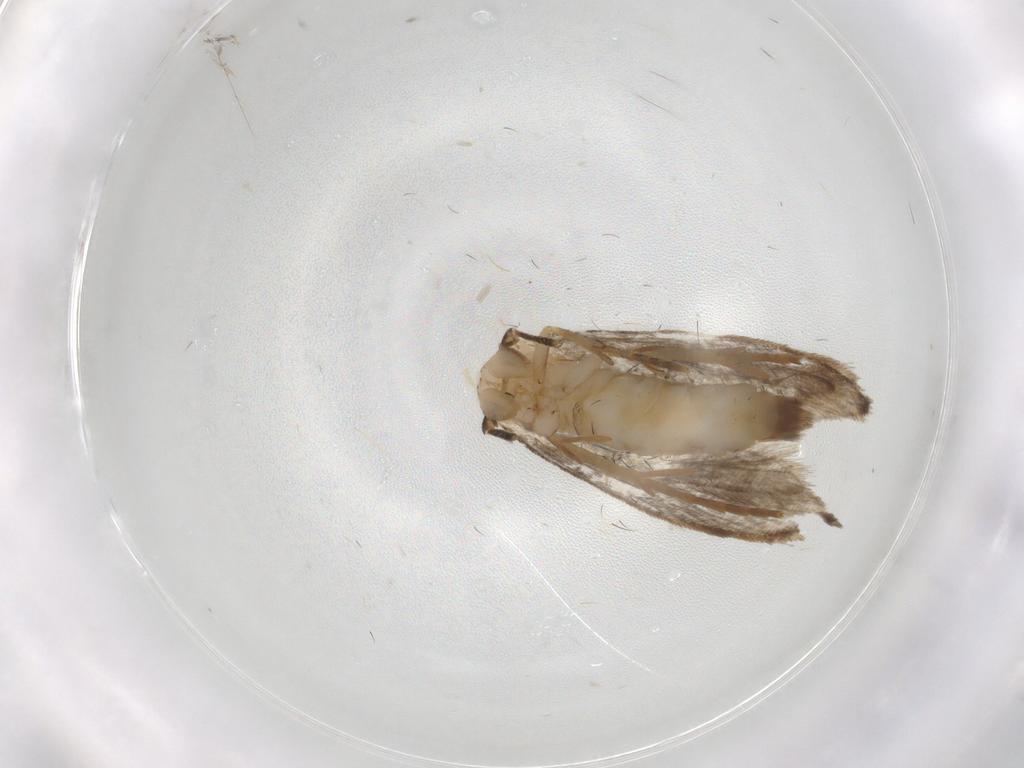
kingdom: Animalia
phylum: Arthropoda
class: Insecta
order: Lepidoptera
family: Tineidae
